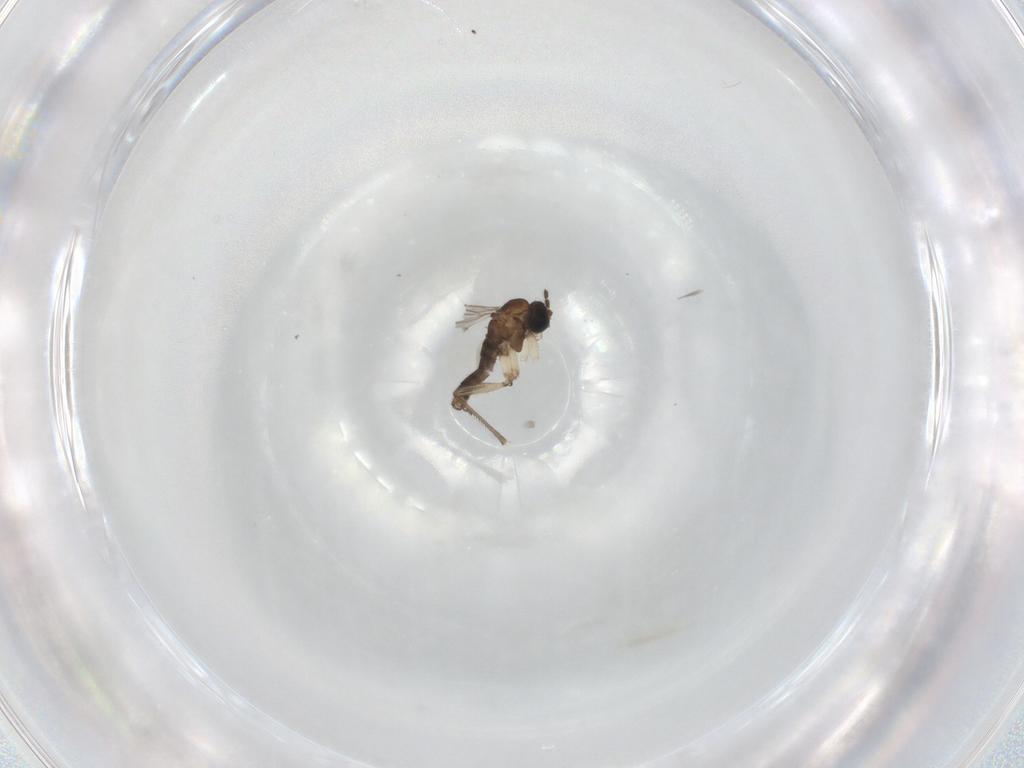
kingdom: Animalia
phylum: Arthropoda
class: Insecta
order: Diptera
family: Sciaridae
